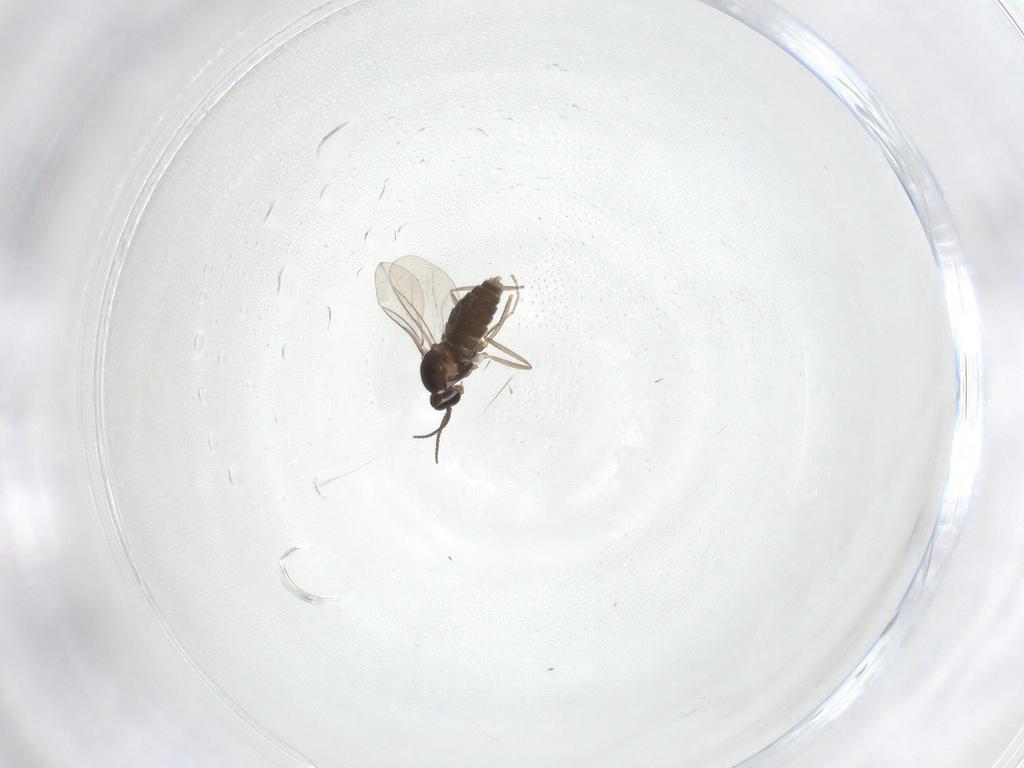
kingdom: Animalia
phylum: Arthropoda
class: Insecta
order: Diptera
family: Cecidomyiidae
